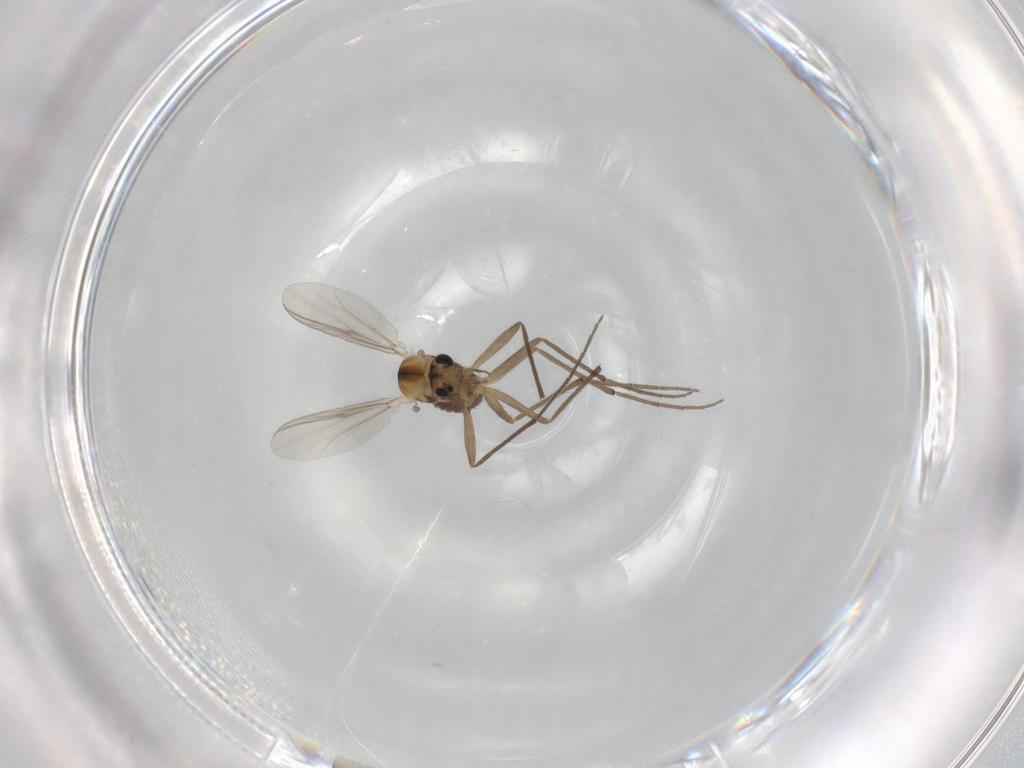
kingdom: Animalia
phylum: Arthropoda
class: Insecta
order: Diptera
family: Chironomidae
